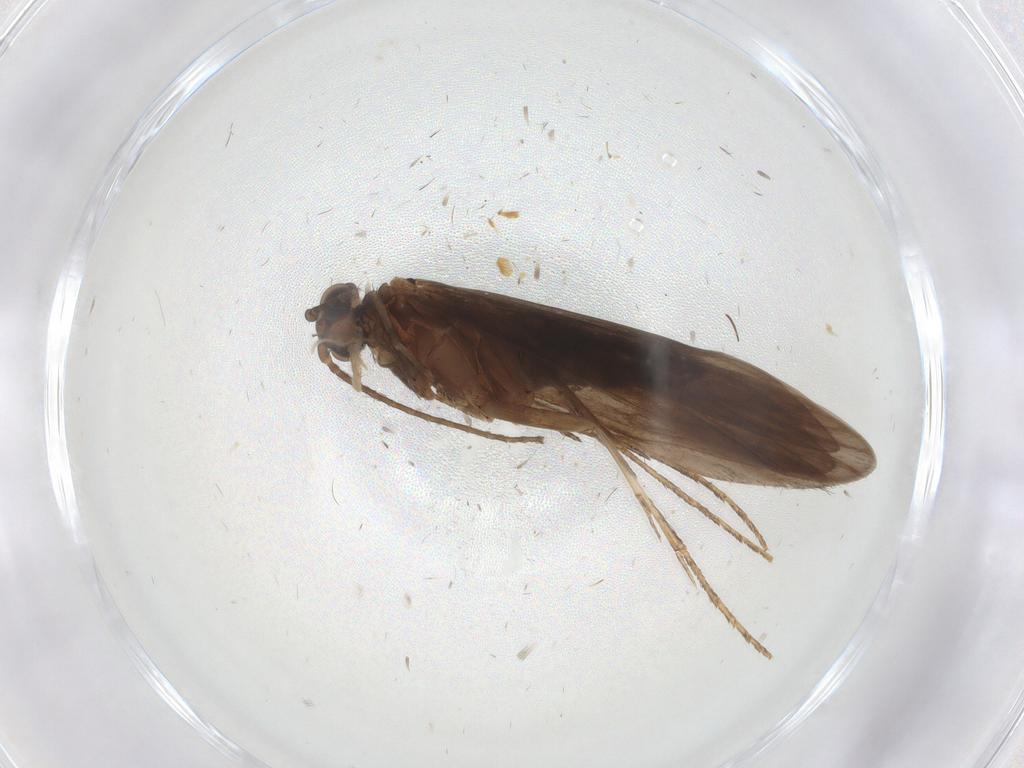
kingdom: Animalia
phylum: Arthropoda
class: Insecta
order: Trichoptera
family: Xiphocentronidae
